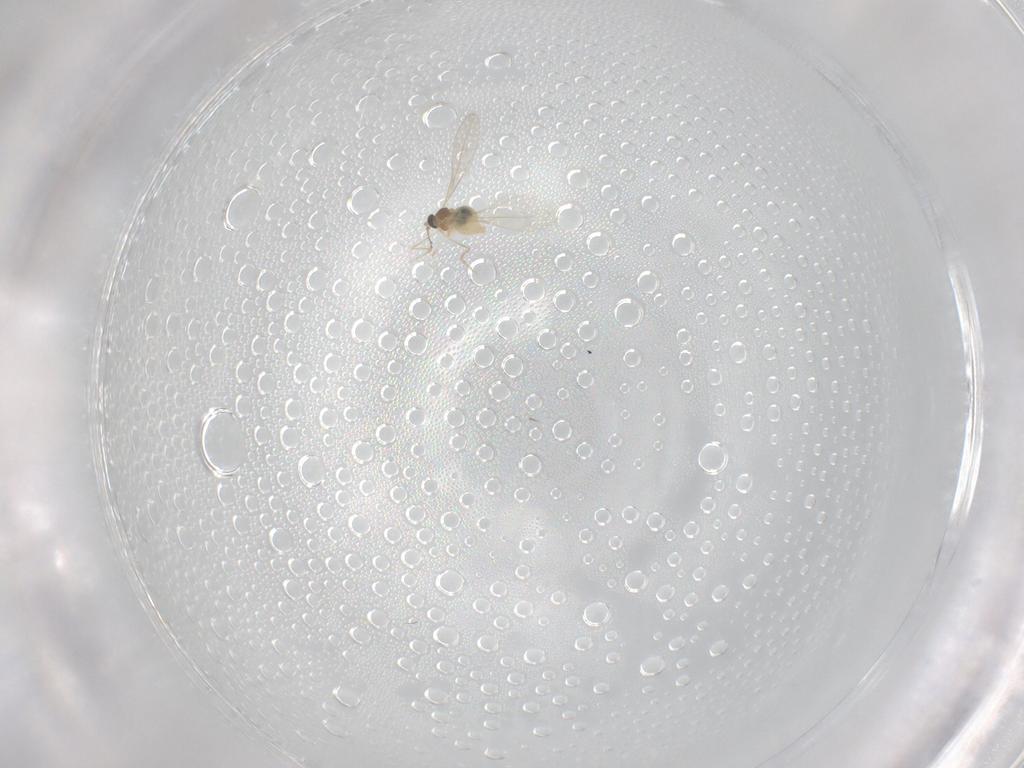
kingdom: Animalia
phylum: Arthropoda
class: Insecta
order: Diptera
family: Cecidomyiidae
